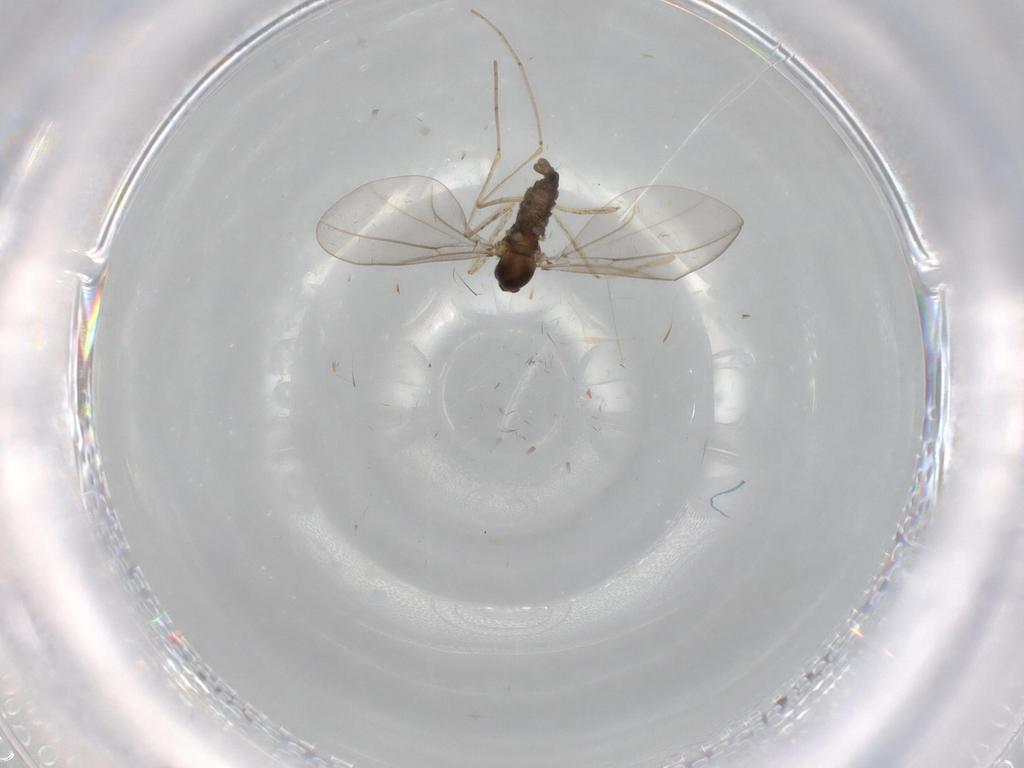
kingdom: Animalia
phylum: Arthropoda
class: Insecta
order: Diptera
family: Cecidomyiidae
